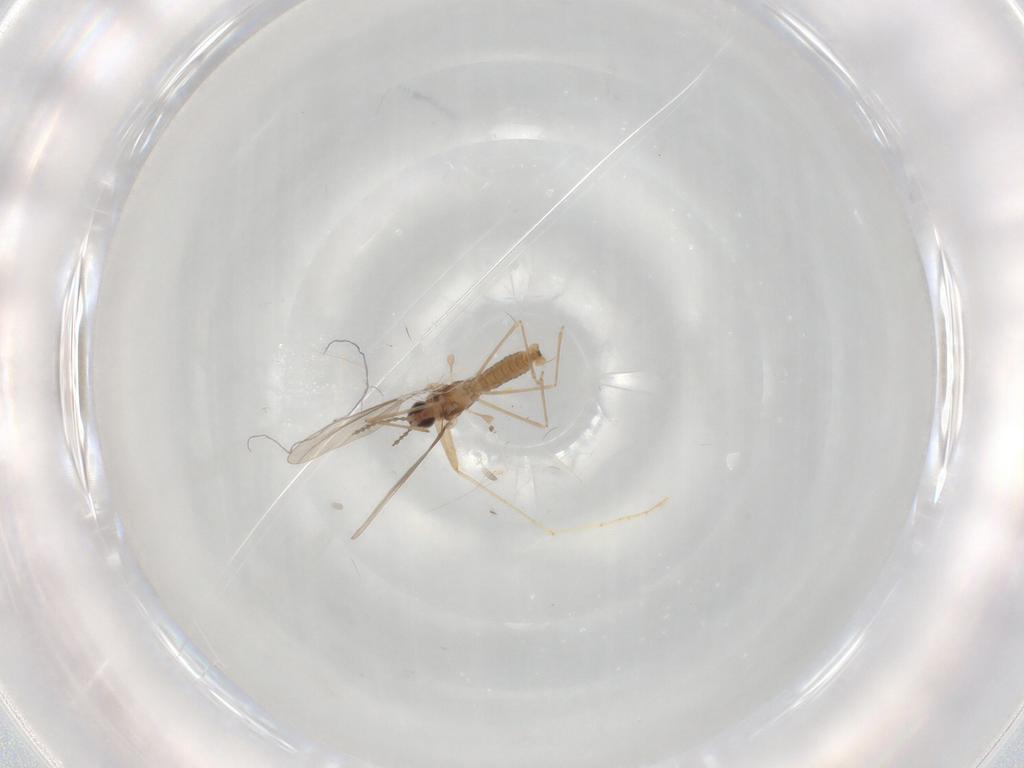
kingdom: Animalia
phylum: Arthropoda
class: Insecta
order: Diptera
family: Cecidomyiidae
